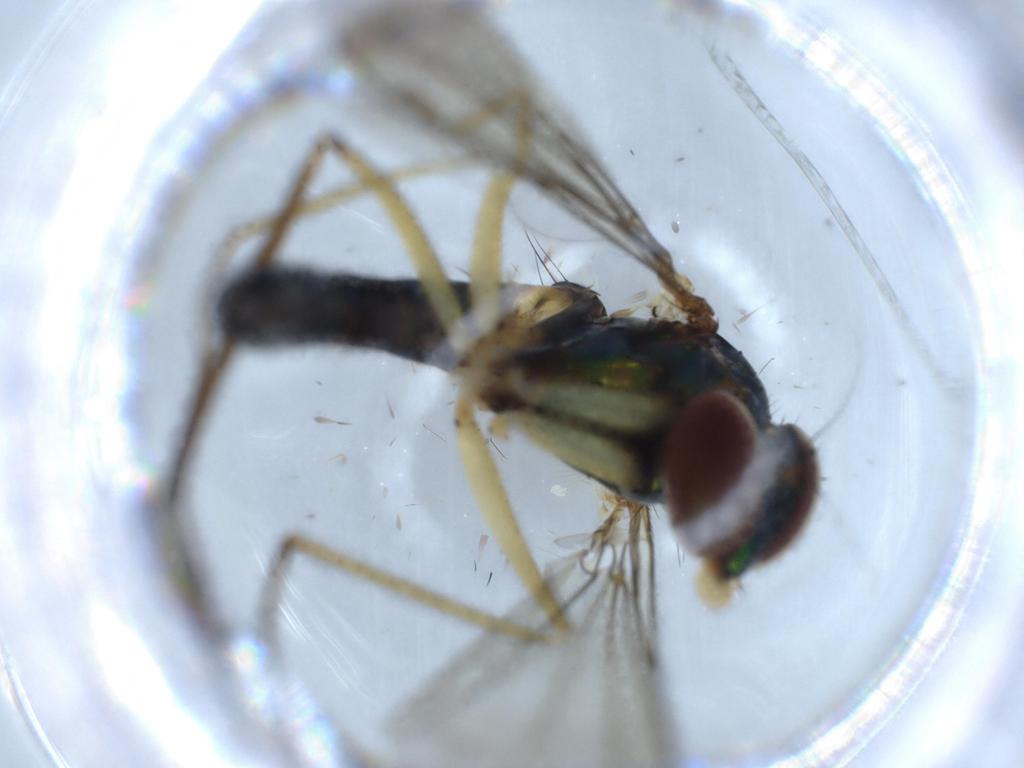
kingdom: Animalia
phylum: Arthropoda
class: Insecta
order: Diptera
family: Dolichopodidae
